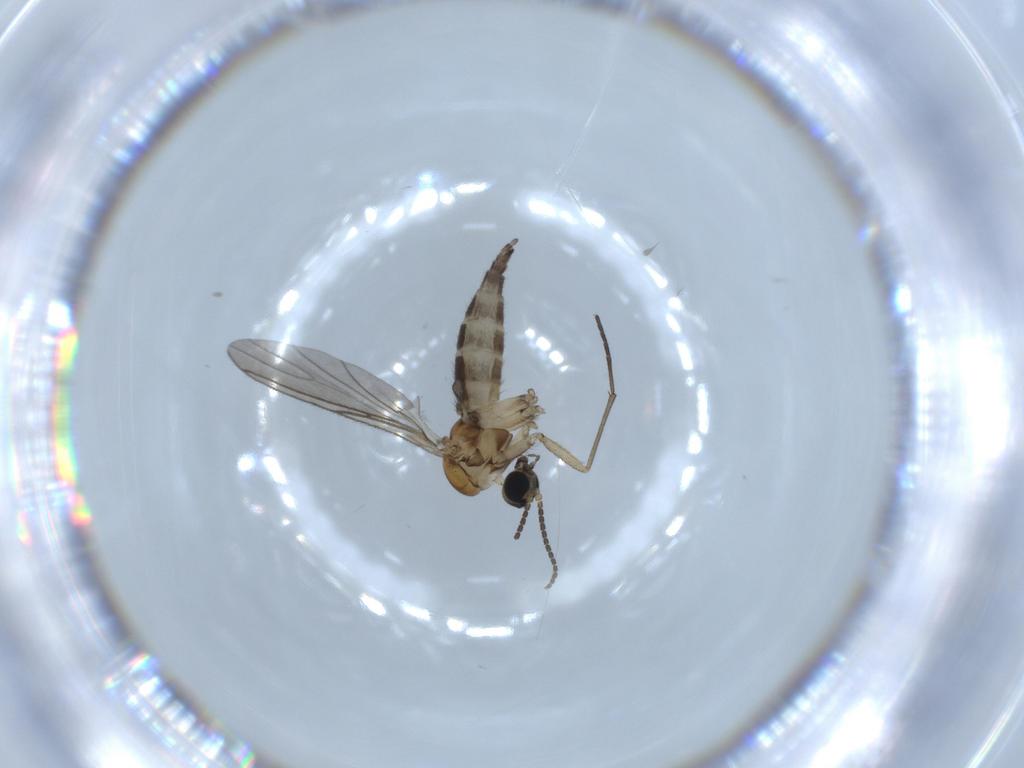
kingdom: Animalia
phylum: Arthropoda
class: Insecta
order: Diptera
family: Sciaridae
